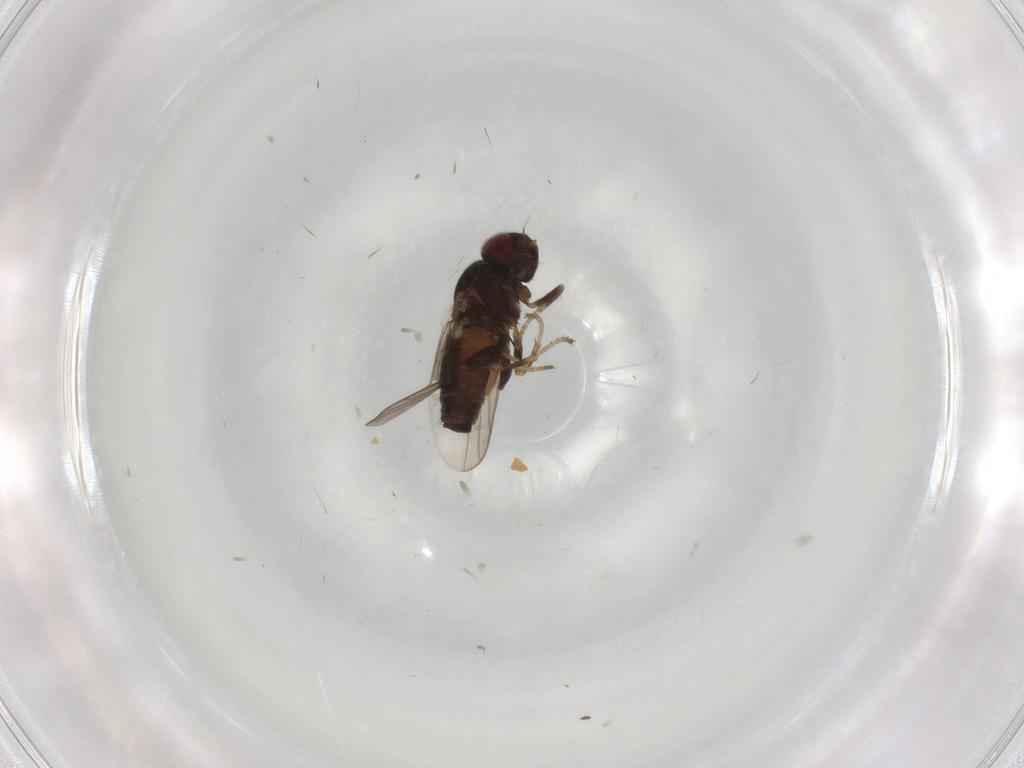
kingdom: Animalia
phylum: Arthropoda
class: Insecta
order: Diptera
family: Chloropidae
